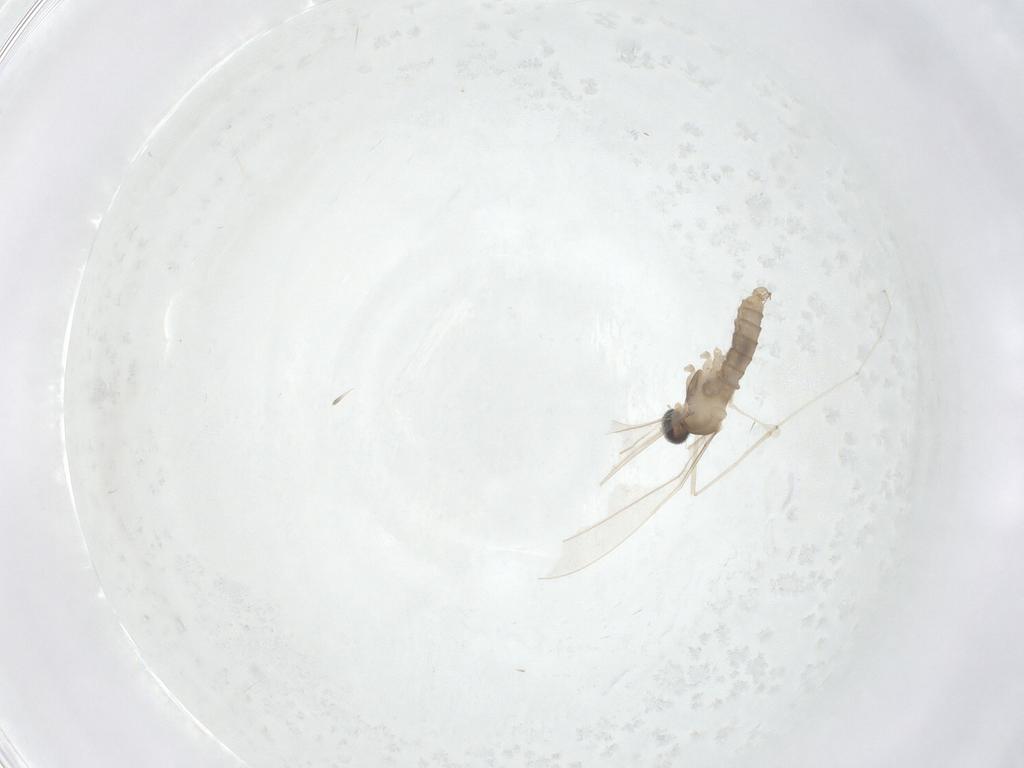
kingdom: Animalia
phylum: Arthropoda
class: Insecta
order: Diptera
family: Cecidomyiidae
